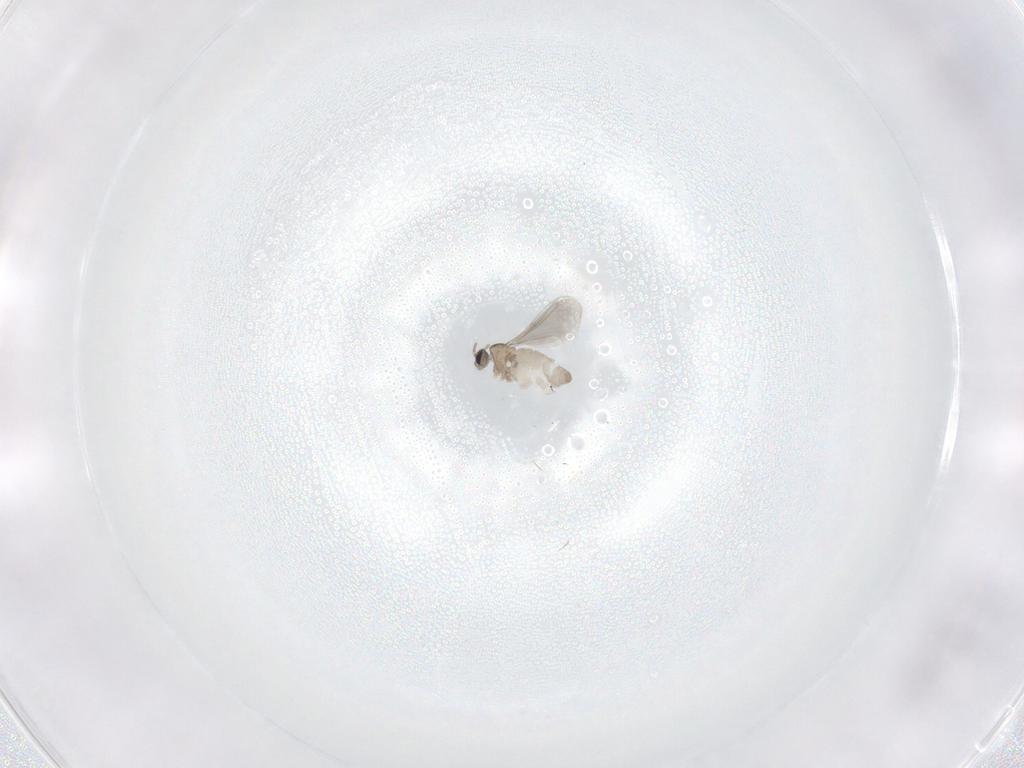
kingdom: Animalia
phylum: Arthropoda
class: Insecta
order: Diptera
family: Cecidomyiidae
